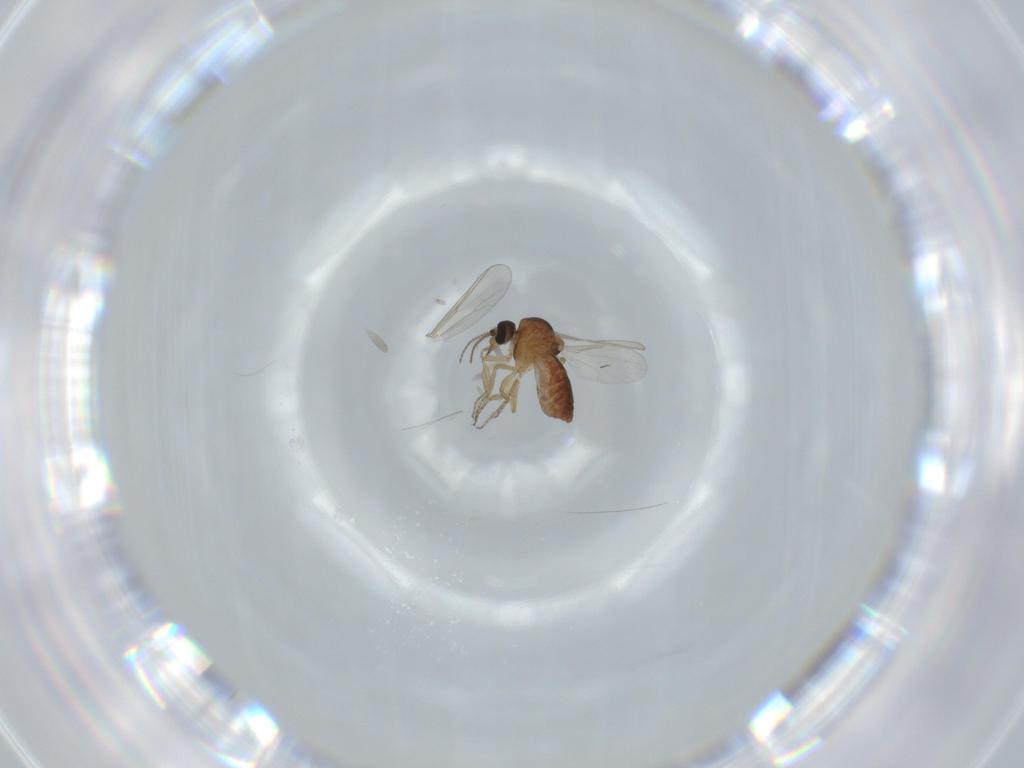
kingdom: Animalia
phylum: Arthropoda
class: Insecta
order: Diptera
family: Ceratopogonidae
